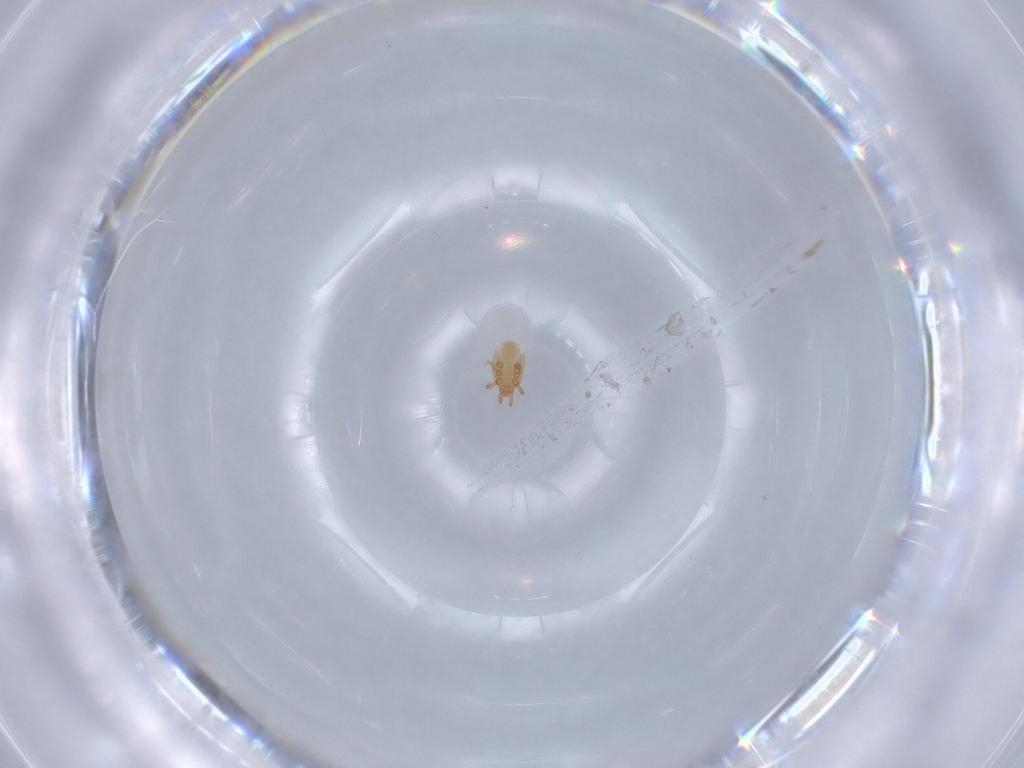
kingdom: Animalia
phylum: Arthropoda
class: Arachnida
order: Mesostigmata
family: Dinychidae
